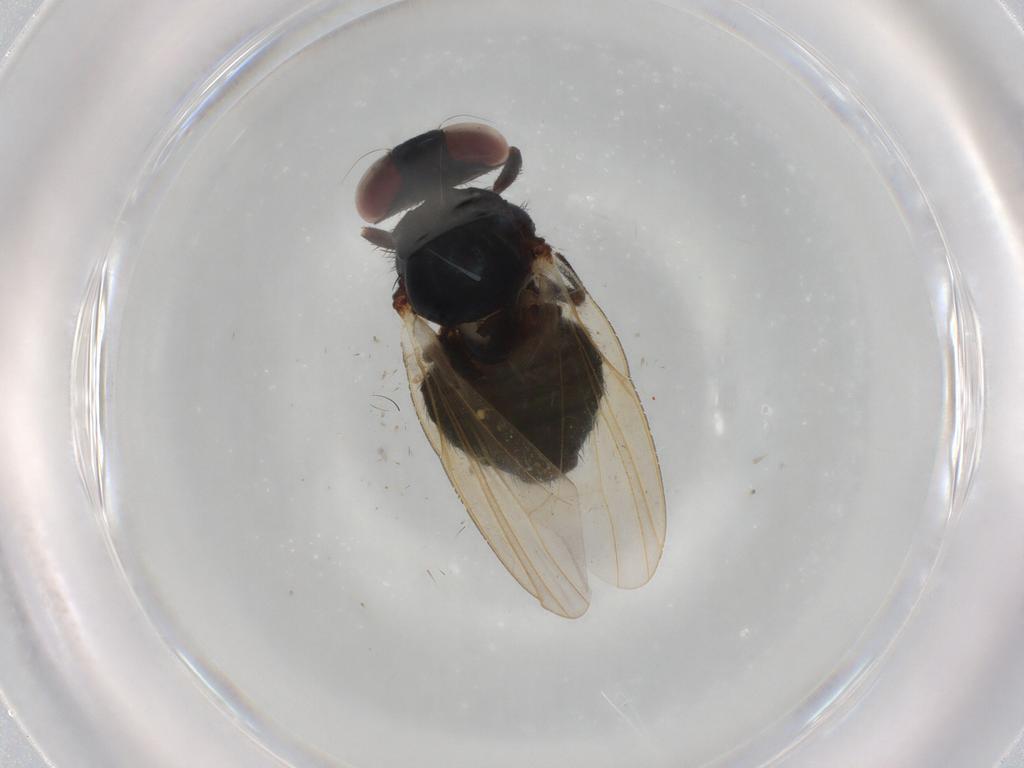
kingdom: Animalia
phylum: Arthropoda
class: Insecta
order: Diptera
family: Lonchaeidae
